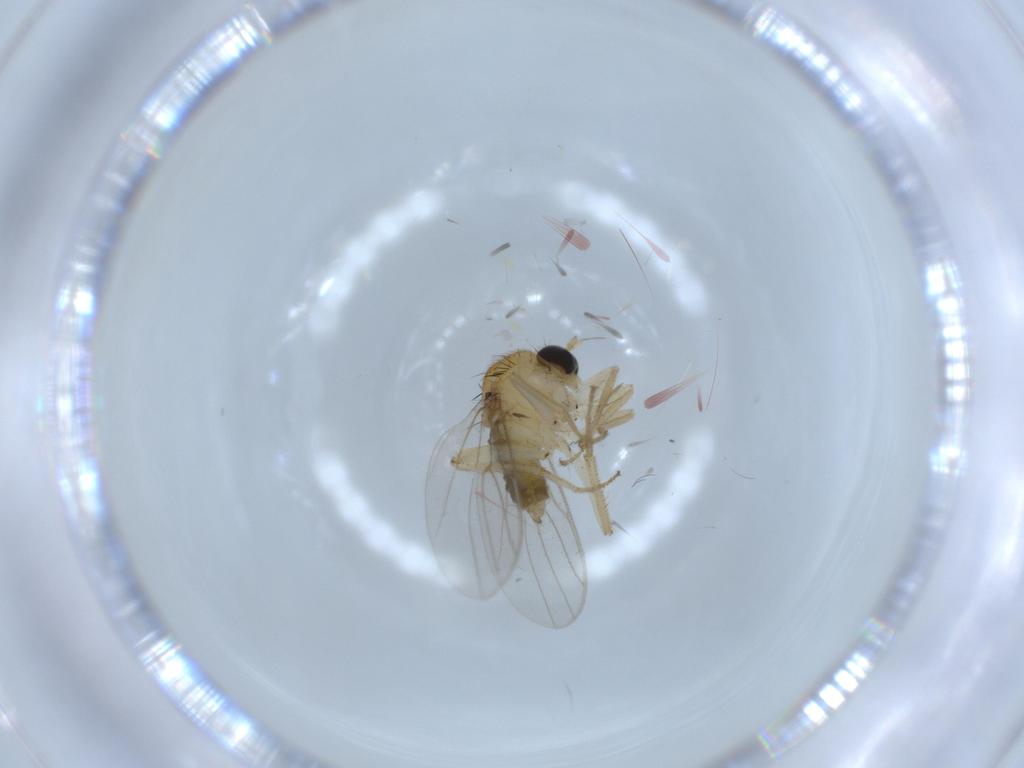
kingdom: Animalia
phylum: Arthropoda
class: Insecta
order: Diptera
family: Hybotidae
